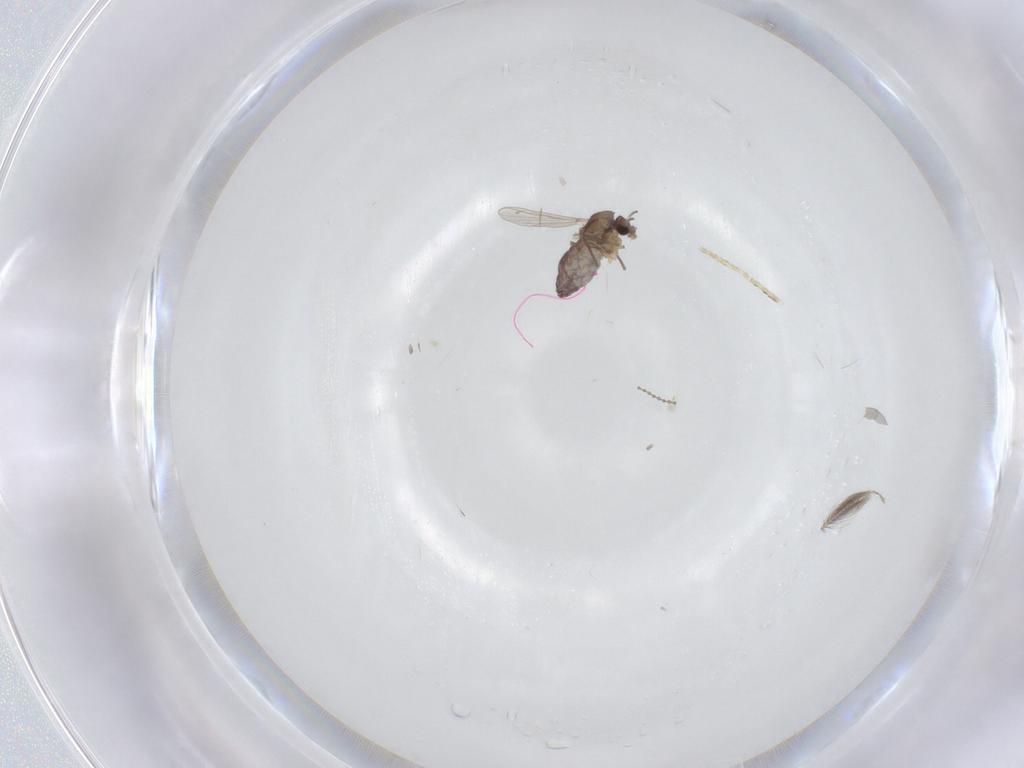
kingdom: Animalia
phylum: Arthropoda
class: Insecta
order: Diptera
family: Chironomidae
